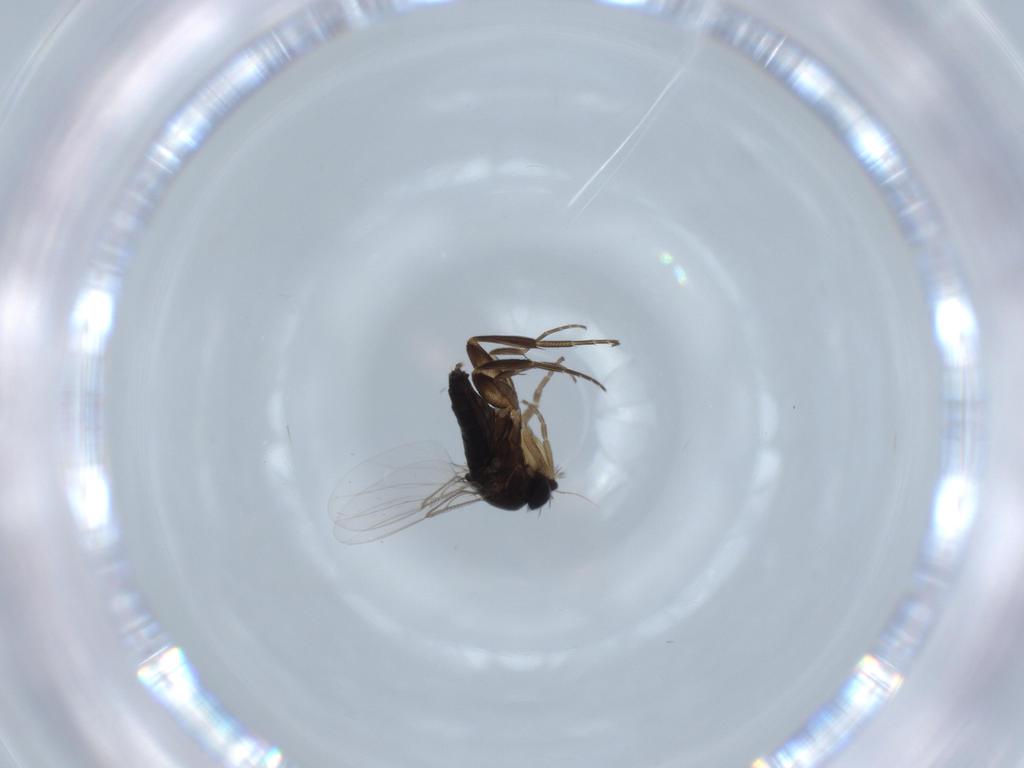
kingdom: Animalia
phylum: Arthropoda
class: Insecta
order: Diptera
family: Phoridae
